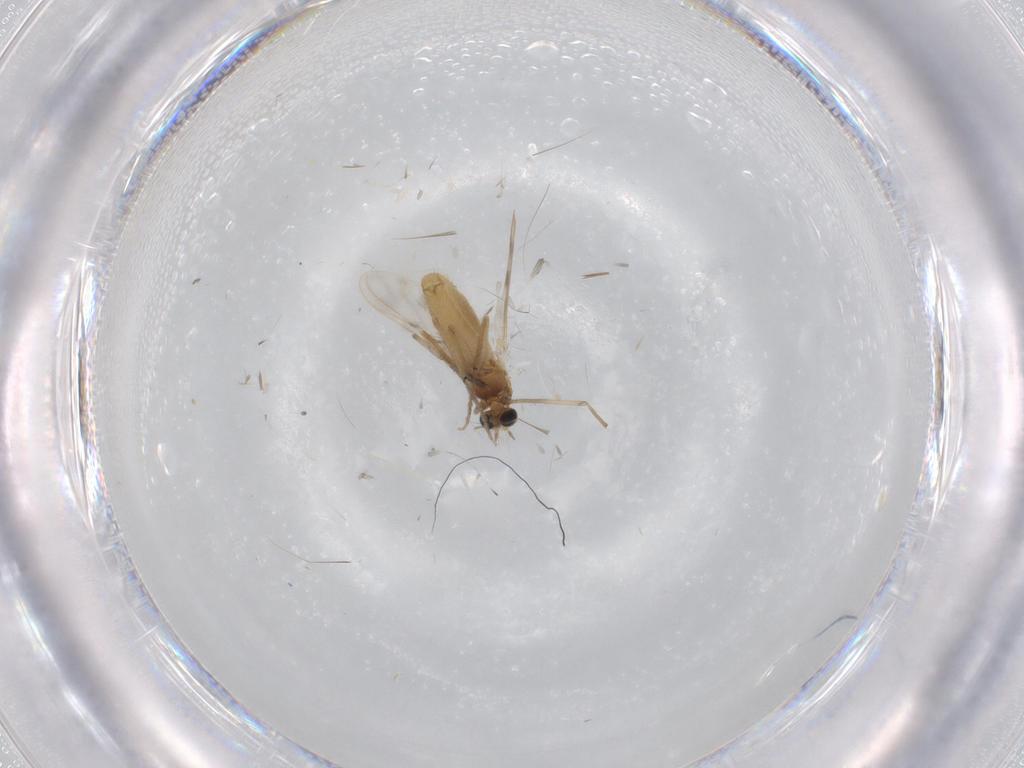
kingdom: Animalia
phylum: Arthropoda
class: Insecta
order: Diptera
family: Chironomidae
